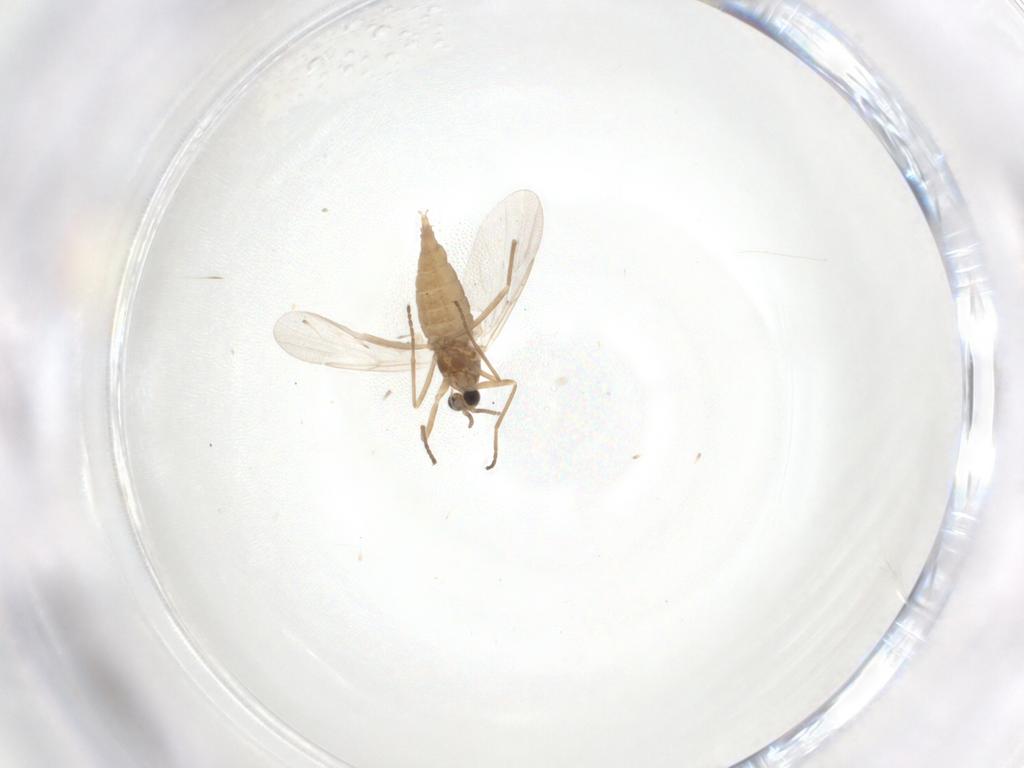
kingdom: Animalia
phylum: Arthropoda
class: Insecta
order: Diptera
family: Cecidomyiidae
